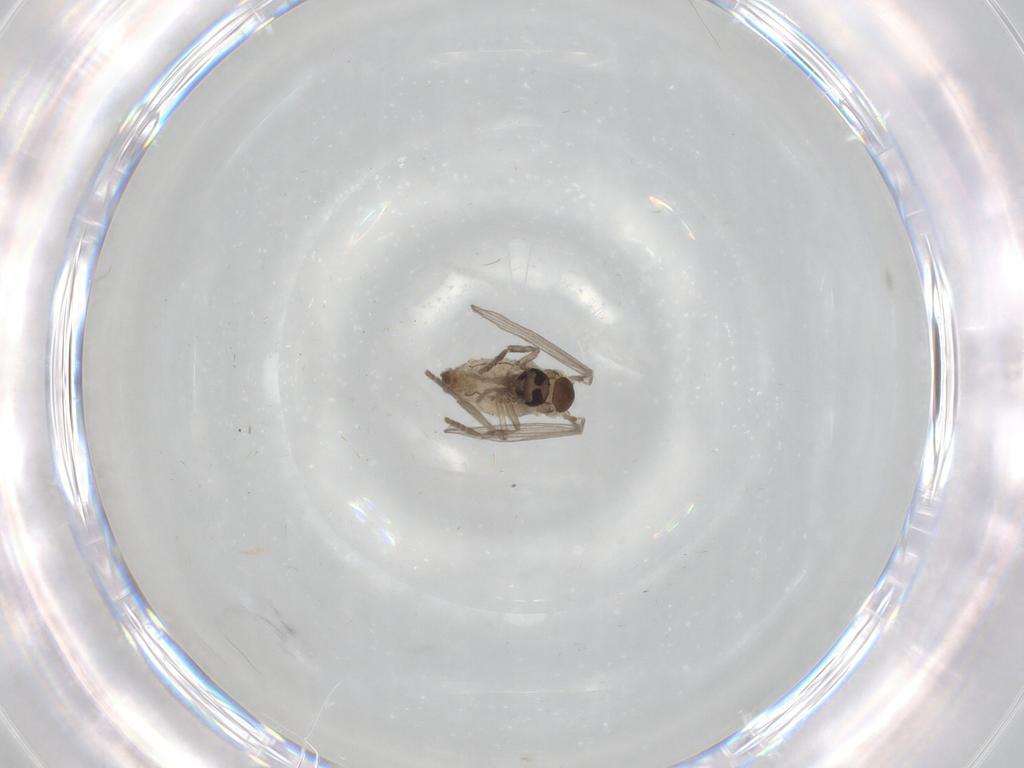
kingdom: Animalia
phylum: Arthropoda
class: Insecta
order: Diptera
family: Psychodidae
